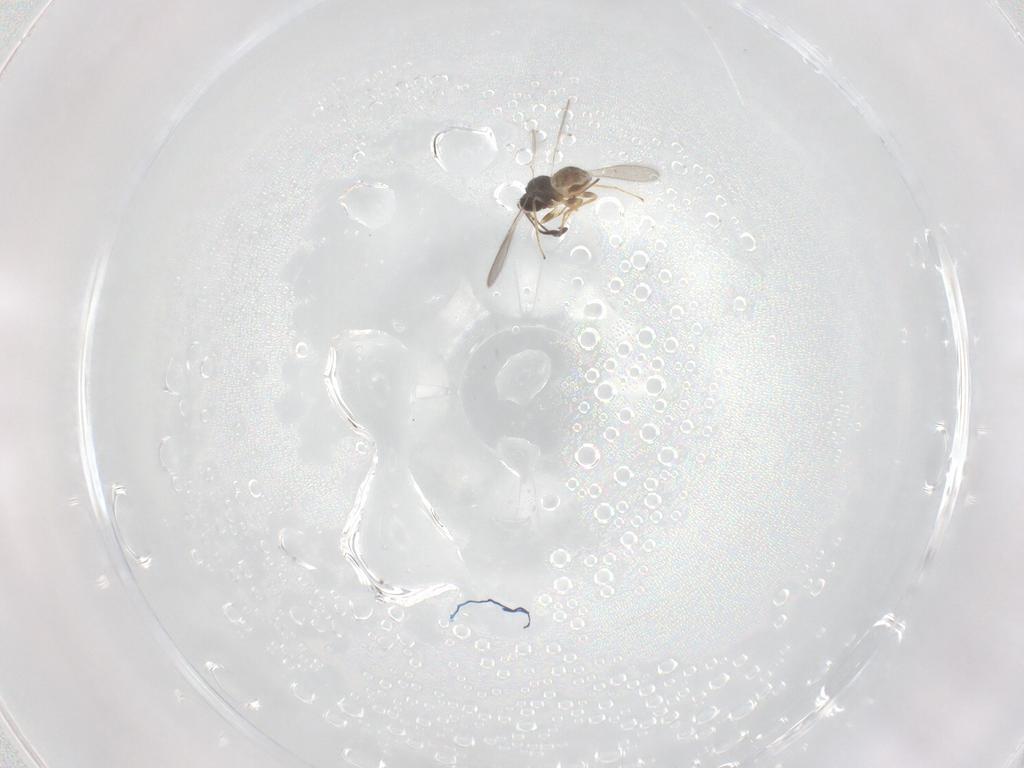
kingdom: Animalia
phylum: Arthropoda
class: Insecta
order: Hymenoptera
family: Mymaridae
